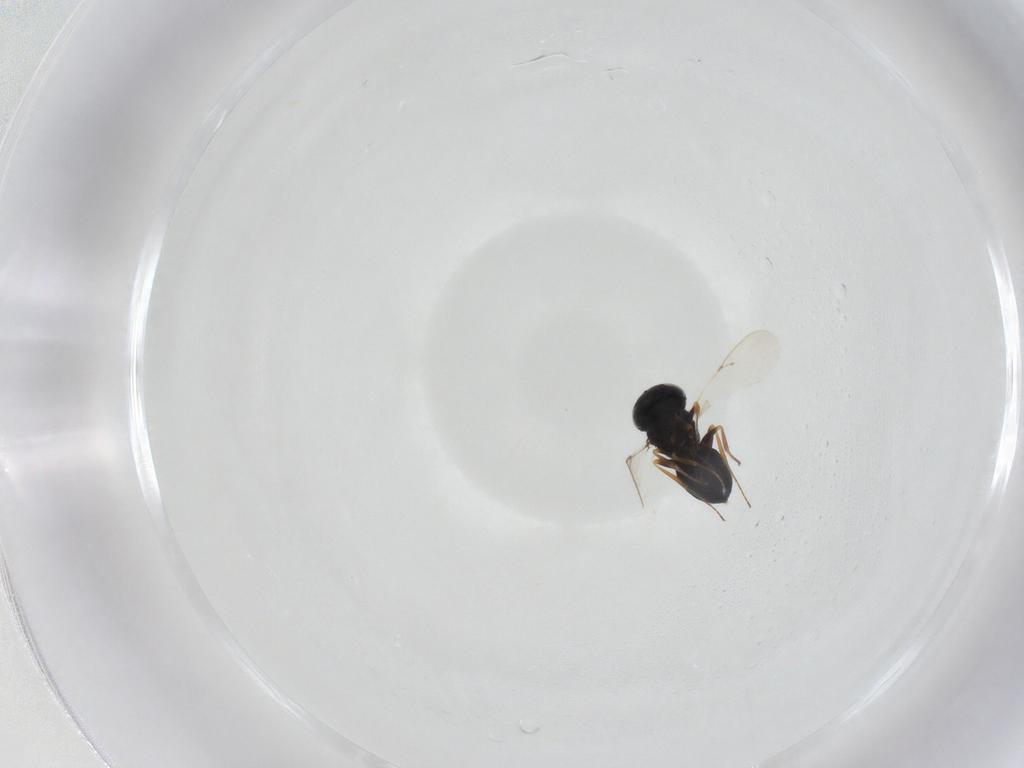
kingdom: Animalia
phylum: Arthropoda
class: Insecta
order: Hymenoptera
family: Scelionidae
